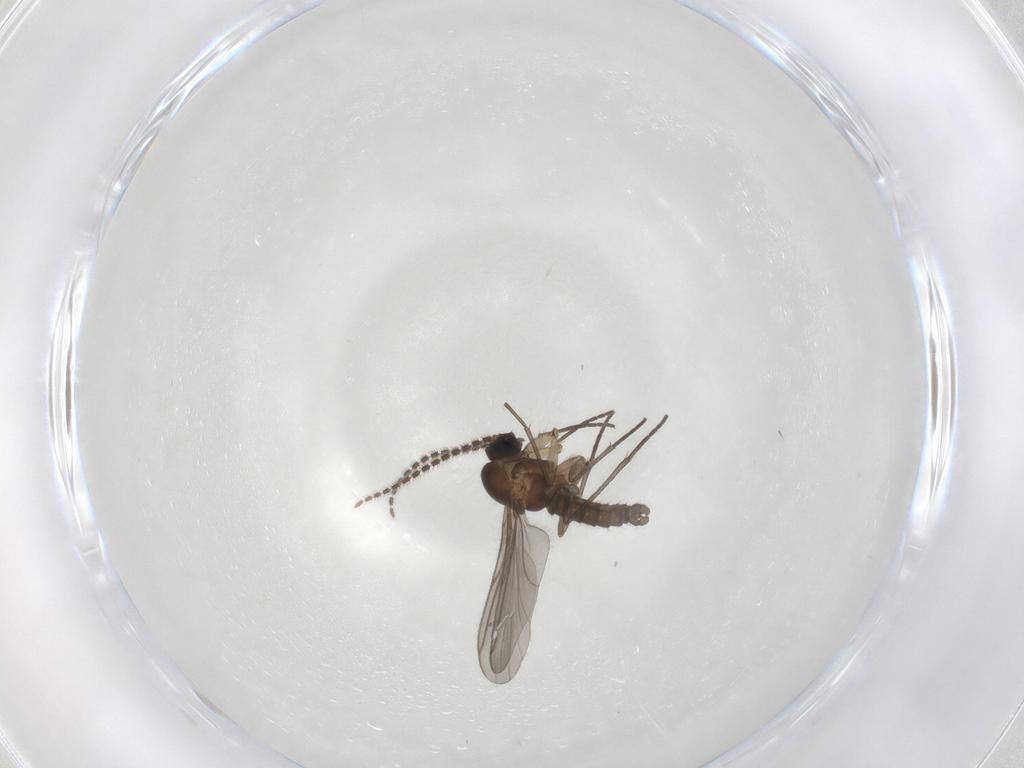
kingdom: Animalia
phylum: Arthropoda
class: Insecta
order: Diptera
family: Sciaridae
